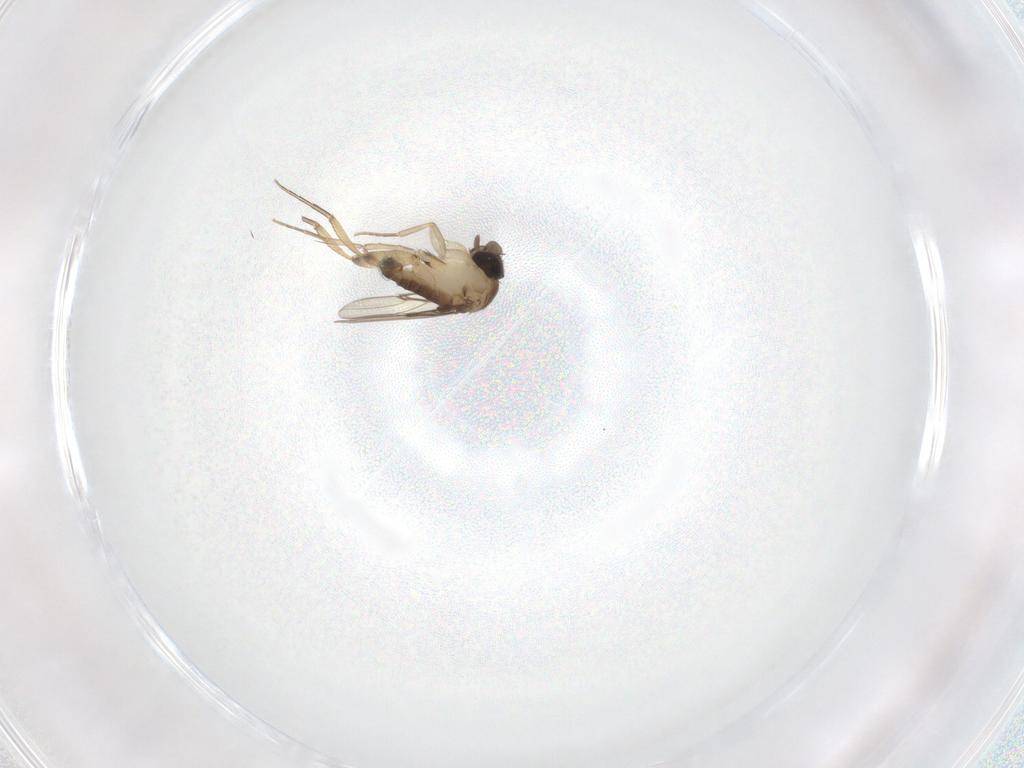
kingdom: Animalia
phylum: Arthropoda
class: Insecta
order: Diptera
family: Phoridae
